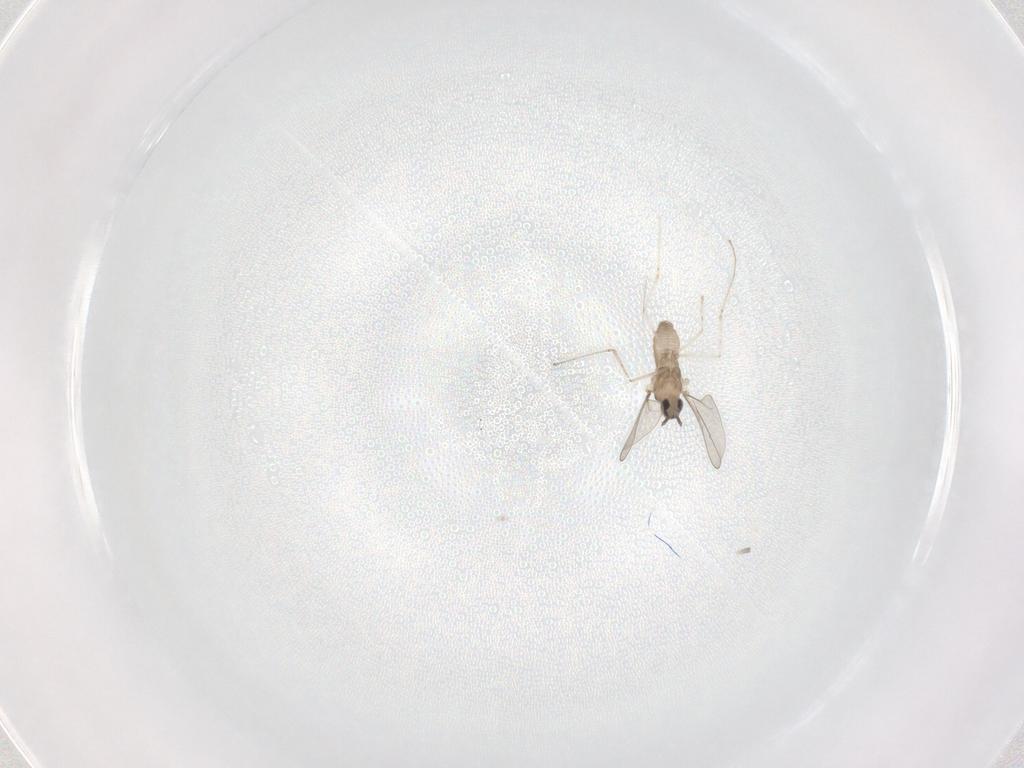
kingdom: Animalia
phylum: Arthropoda
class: Insecta
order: Diptera
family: Cecidomyiidae
